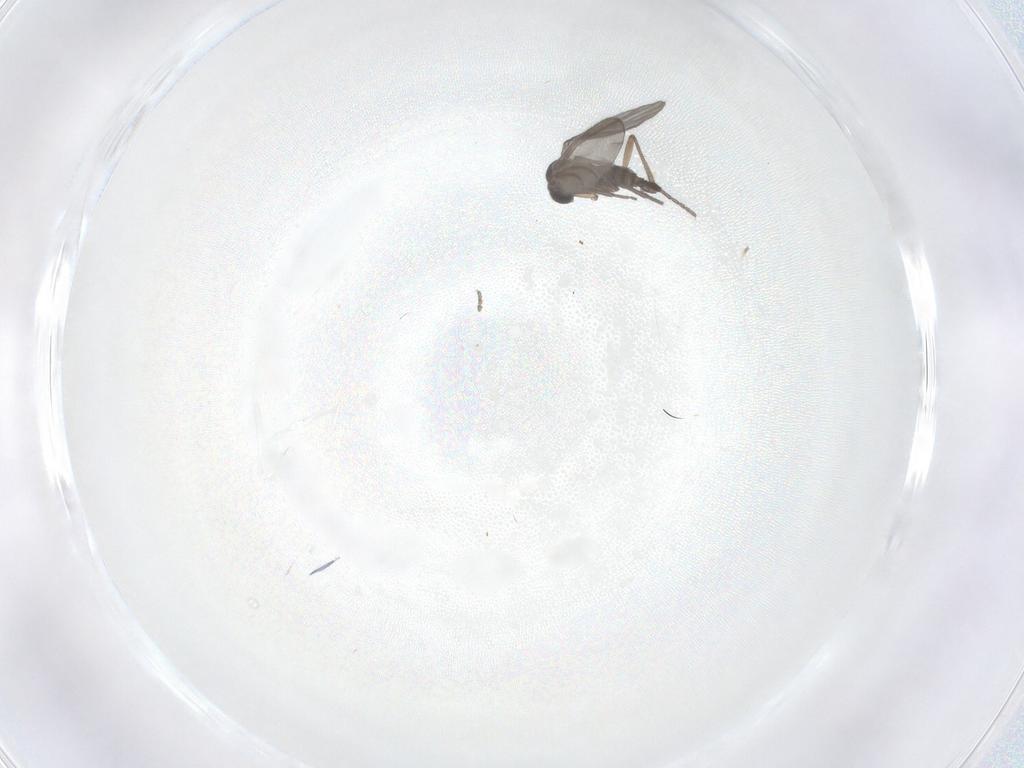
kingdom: Animalia
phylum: Arthropoda
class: Insecta
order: Diptera
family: Sciaridae
